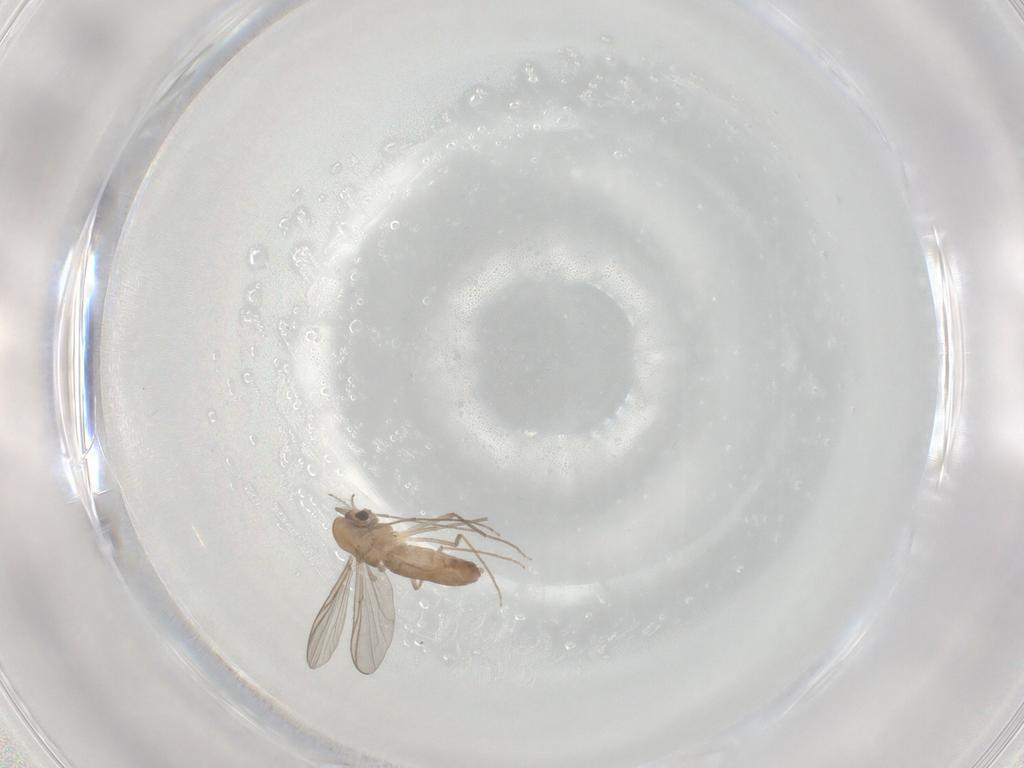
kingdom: Animalia
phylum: Arthropoda
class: Insecta
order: Diptera
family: Chironomidae
